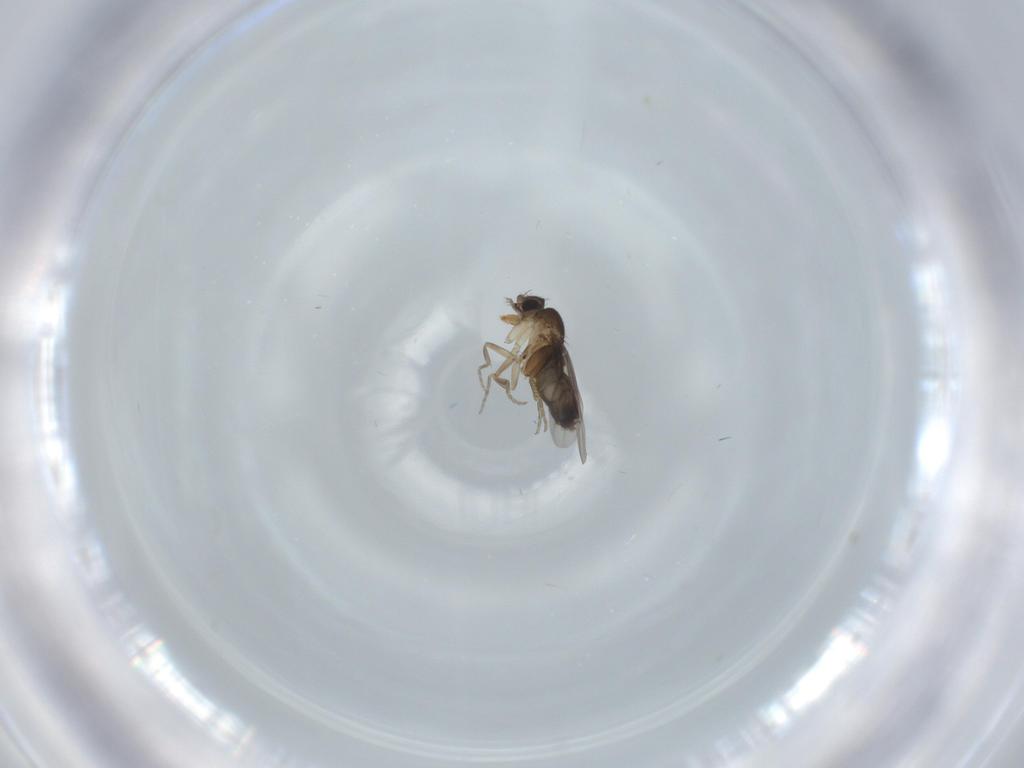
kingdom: Animalia
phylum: Arthropoda
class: Insecta
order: Diptera
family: Phoridae
